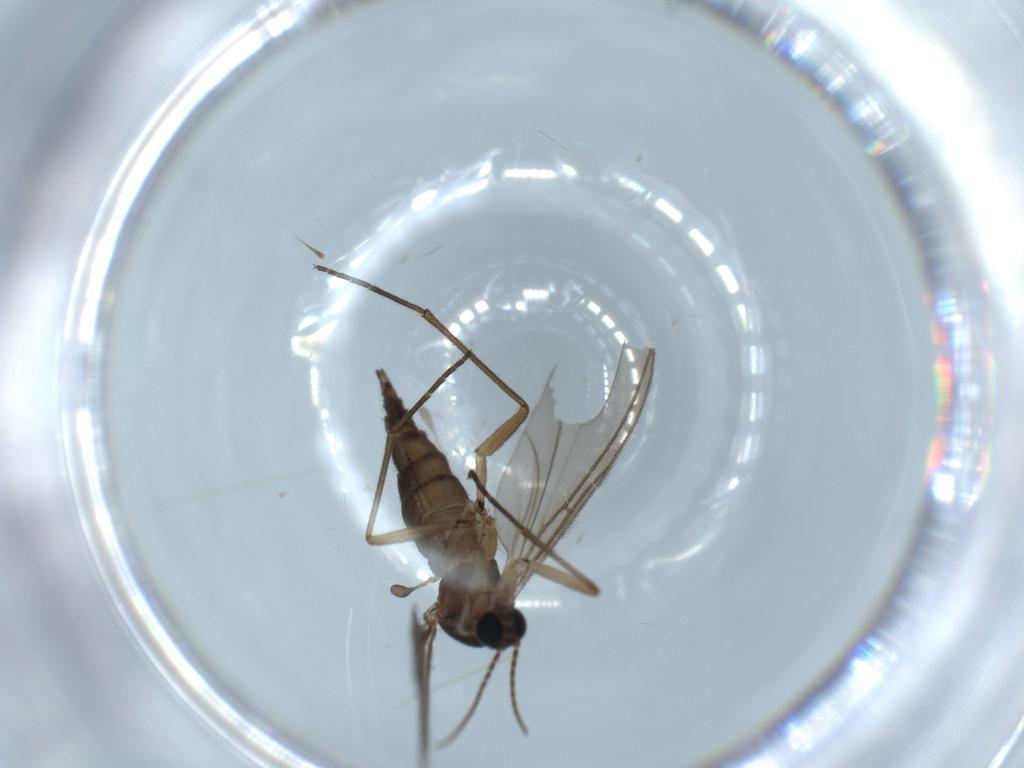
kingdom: Animalia
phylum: Arthropoda
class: Insecta
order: Diptera
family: Sciaridae
